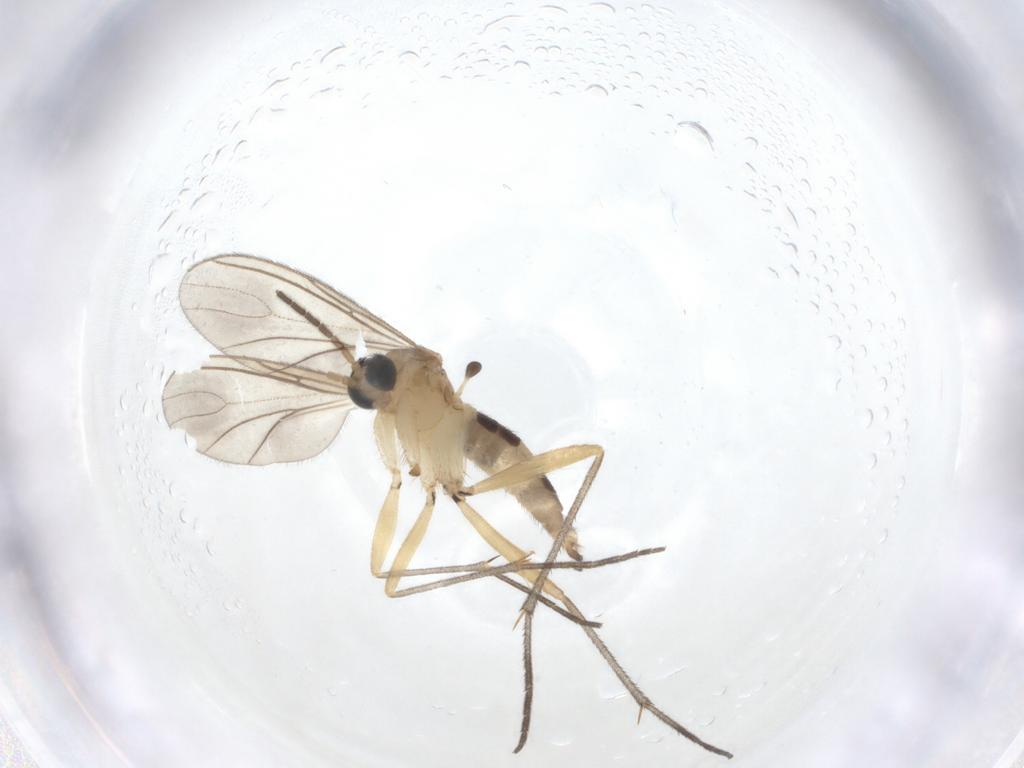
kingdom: Animalia
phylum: Arthropoda
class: Insecta
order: Diptera
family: Sciaridae
